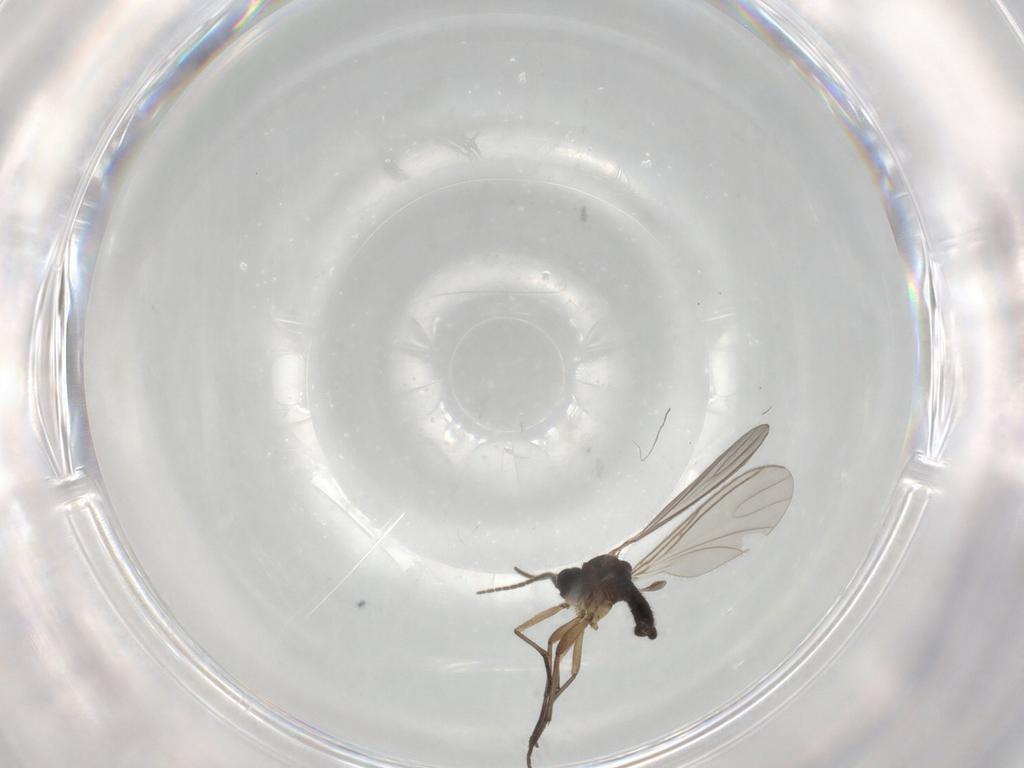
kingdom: Animalia
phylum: Arthropoda
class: Insecta
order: Diptera
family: Sciaridae
